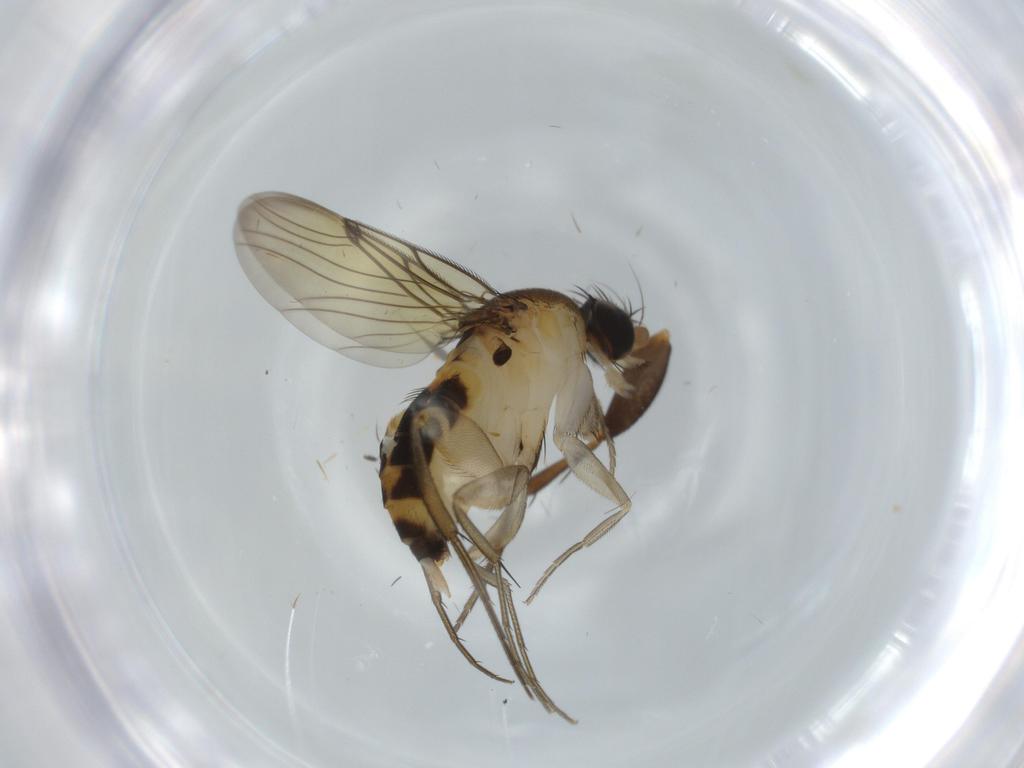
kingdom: Animalia
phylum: Arthropoda
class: Insecta
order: Diptera
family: Phoridae
